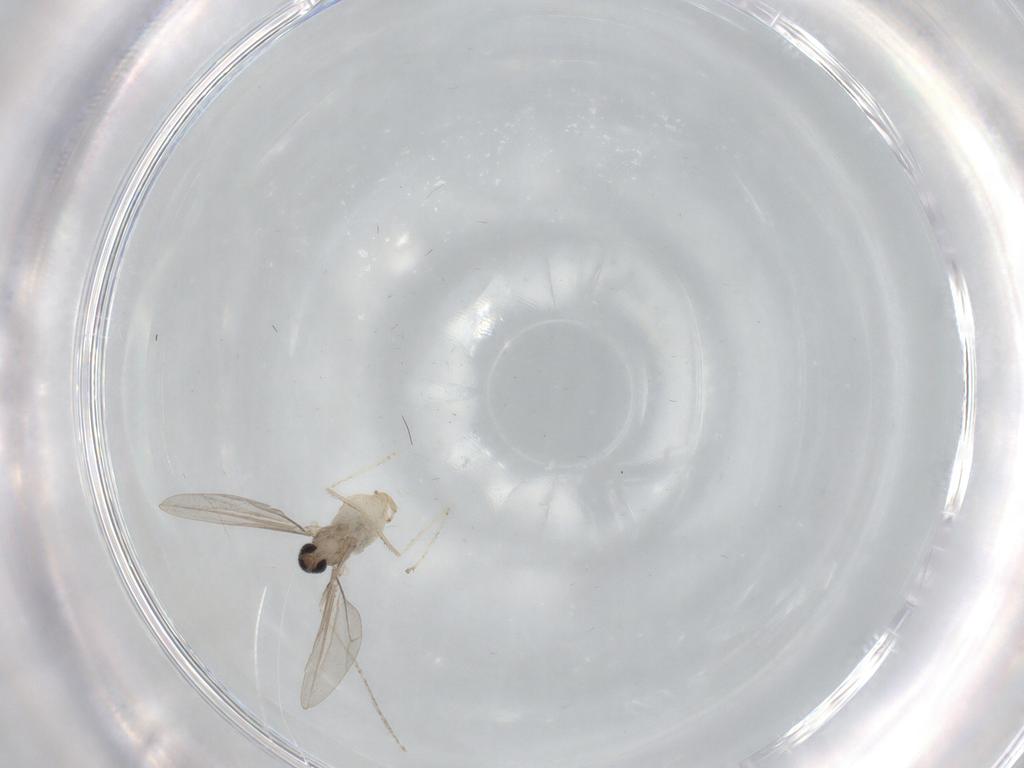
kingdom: Animalia
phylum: Arthropoda
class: Insecta
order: Diptera
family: Cecidomyiidae
